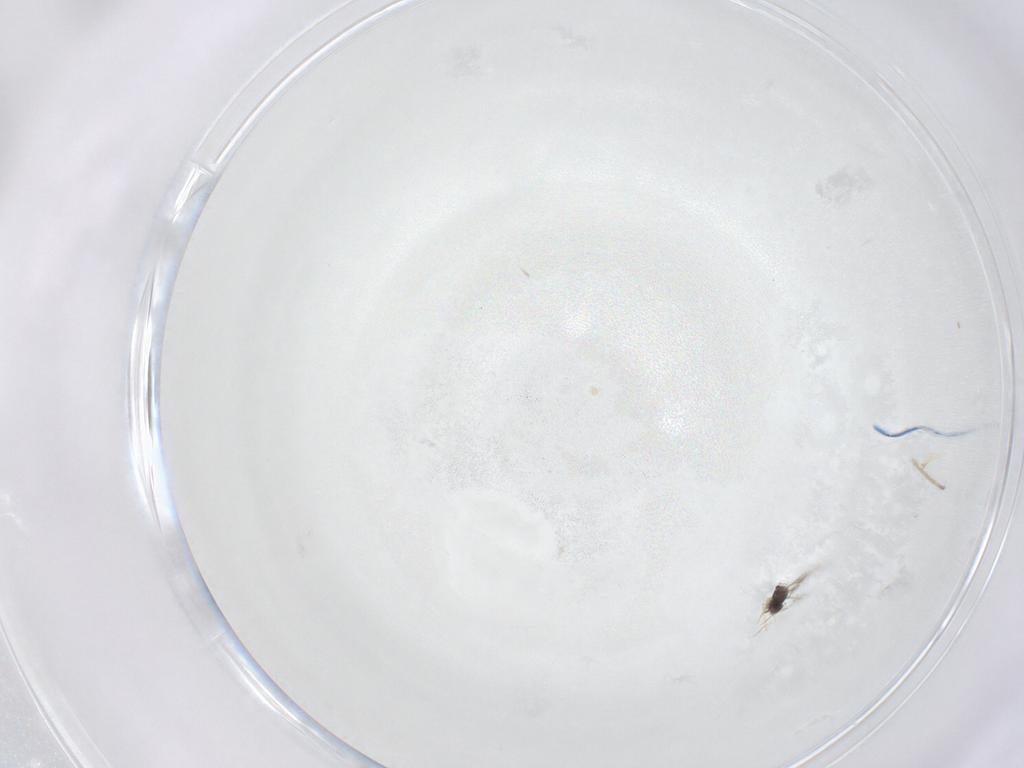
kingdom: Animalia
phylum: Arthropoda
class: Insecta
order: Diptera
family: Chironomidae
